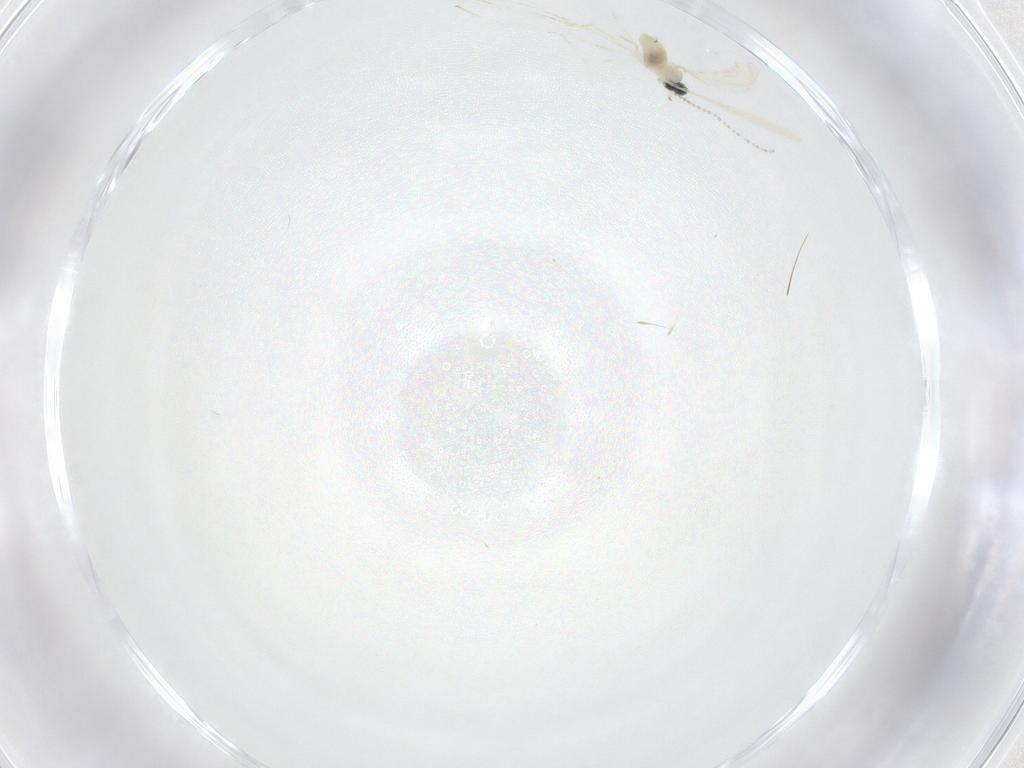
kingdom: Animalia
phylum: Arthropoda
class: Insecta
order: Diptera
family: Cecidomyiidae
